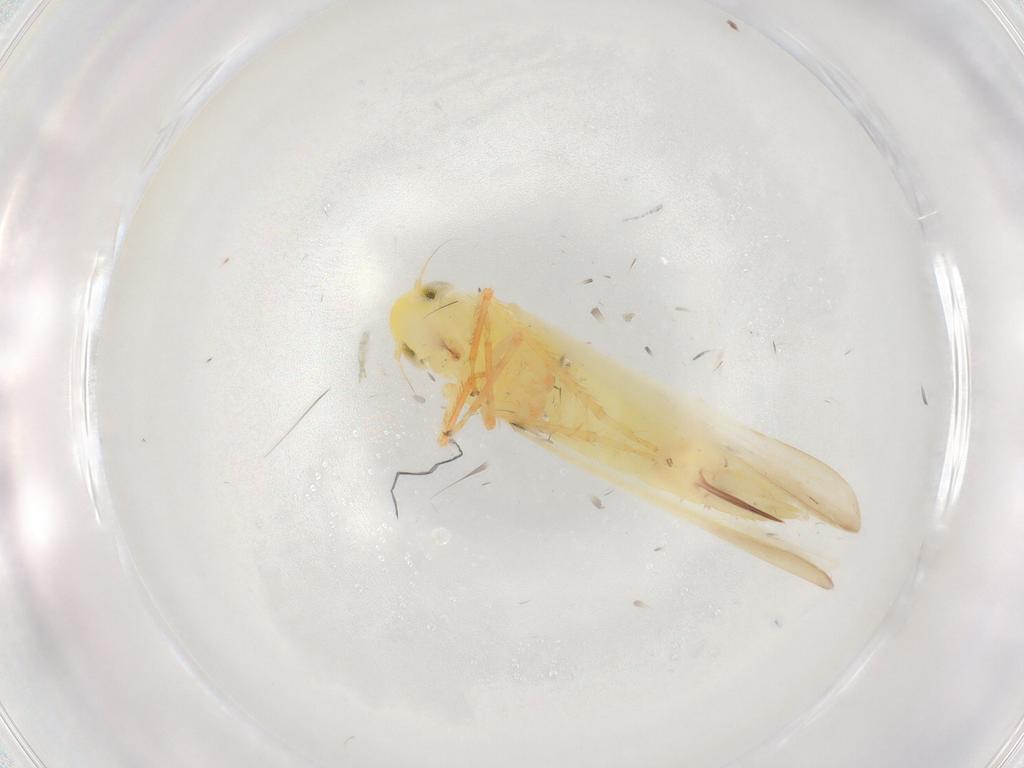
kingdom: Animalia
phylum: Arthropoda
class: Insecta
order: Hemiptera
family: Cicadellidae
